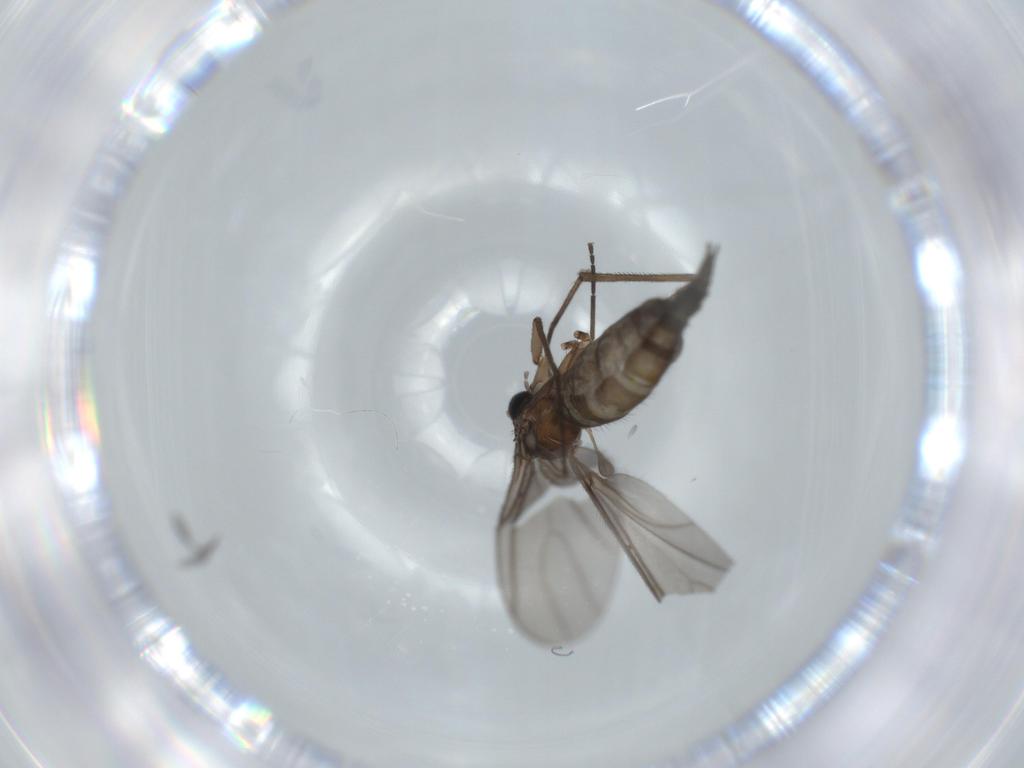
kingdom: Animalia
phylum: Arthropoda
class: Insecta
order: Diptera
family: Sciaridae
